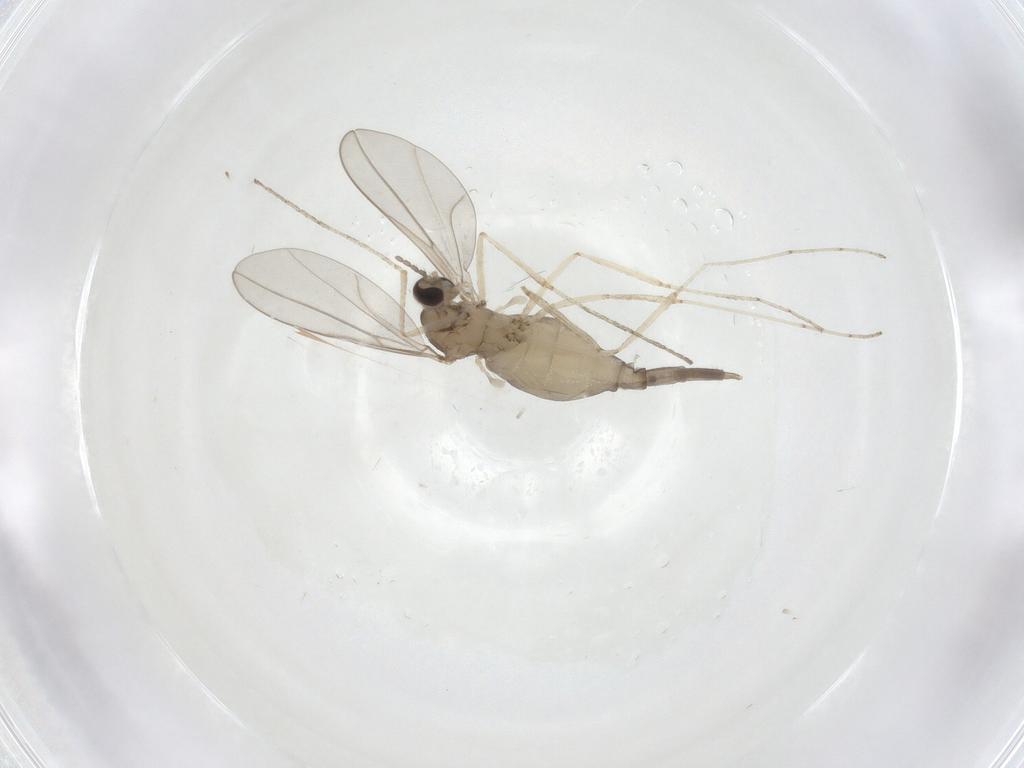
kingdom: Animalia
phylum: Arthropoda
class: Insecta
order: Diptera
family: Cecidomyiidae
